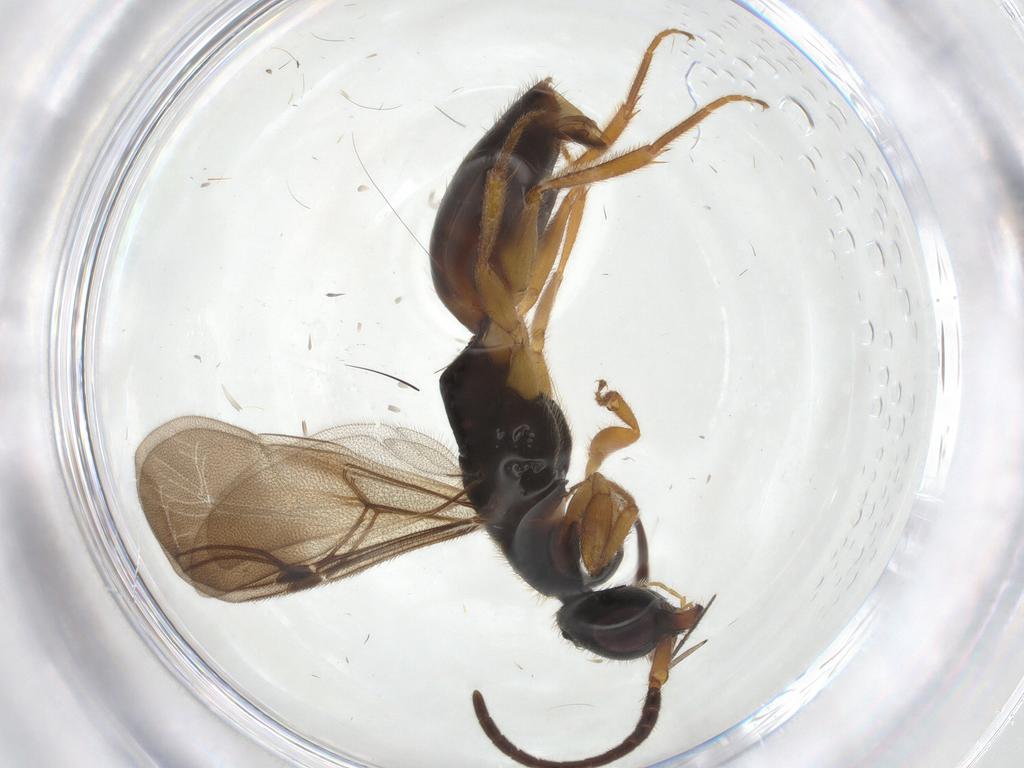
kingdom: Animalia
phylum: Arthropoda
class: Insecta
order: Hymenoptera
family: Bethylidae
